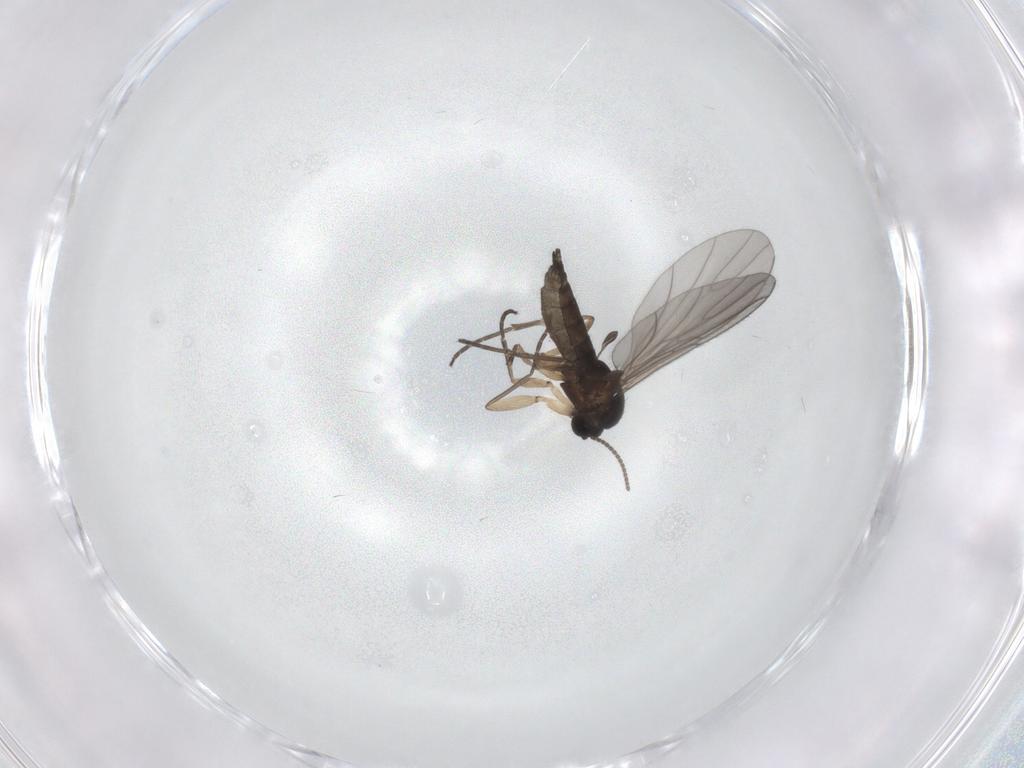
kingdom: Animalia
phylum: Arthropoda
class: Insecta
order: Diptera
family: Sciaridae
